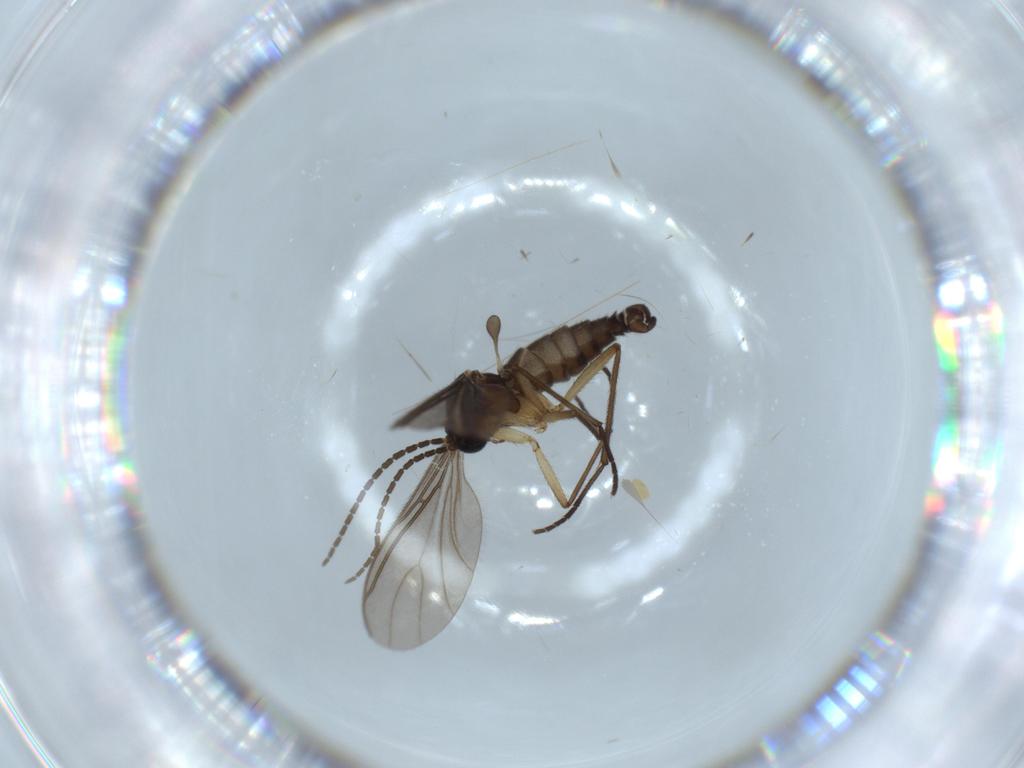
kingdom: Animalia
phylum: Arthropoda
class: Insecta
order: Diptera
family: Sciaridae
